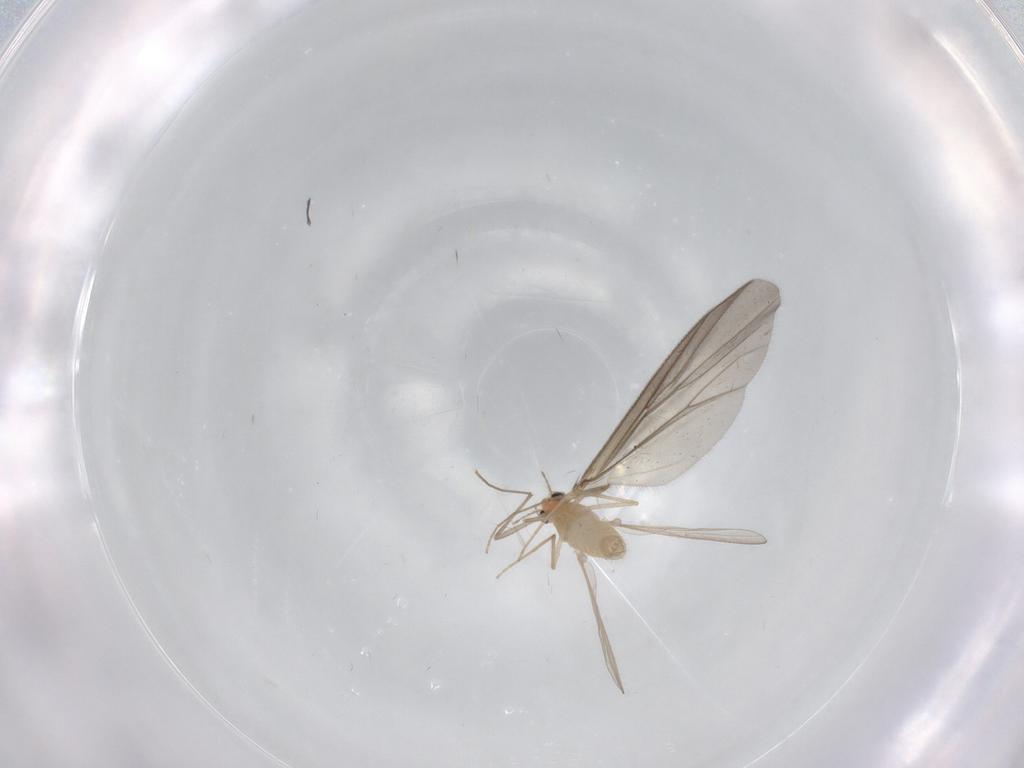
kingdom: Animalia
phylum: Arthropoda
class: Insecta
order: Diptera
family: Chironomidae
